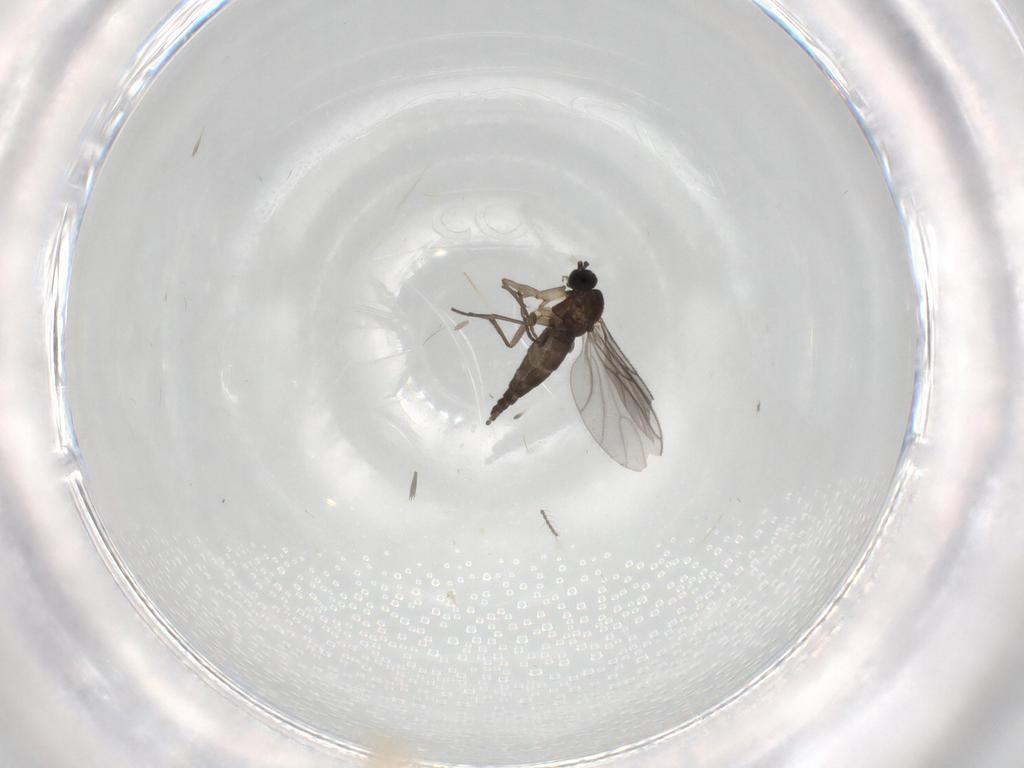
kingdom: Animalia
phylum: Arthropoda
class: Insecta
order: Diptera
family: Sciaridae
